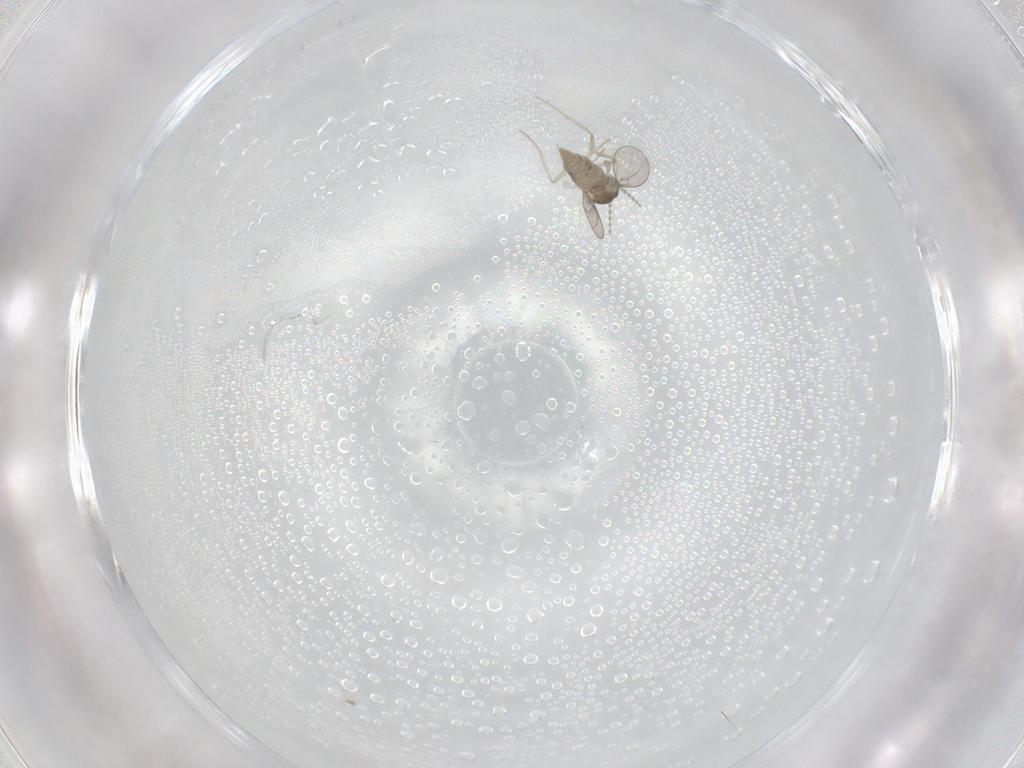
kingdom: Animalia
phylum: Arthropoda
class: Insecta
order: Diptera
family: Cecidomyiidae
